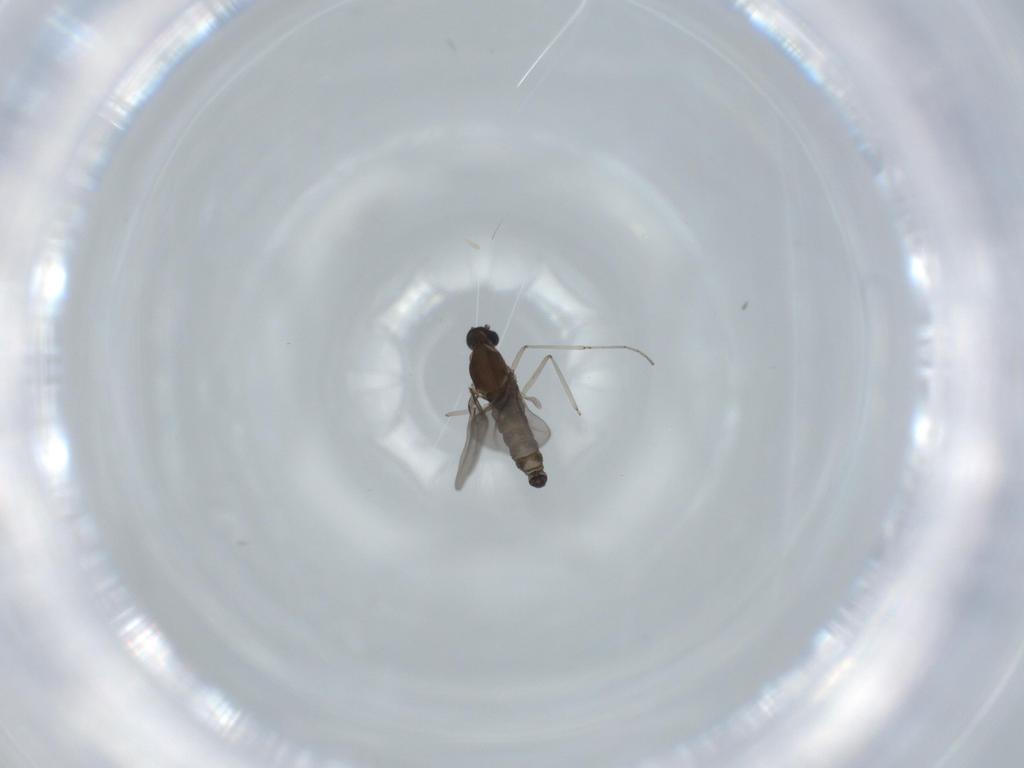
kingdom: Animalia
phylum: Arthropoda
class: Insecta
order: Diptera
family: Cecidomyiidae
